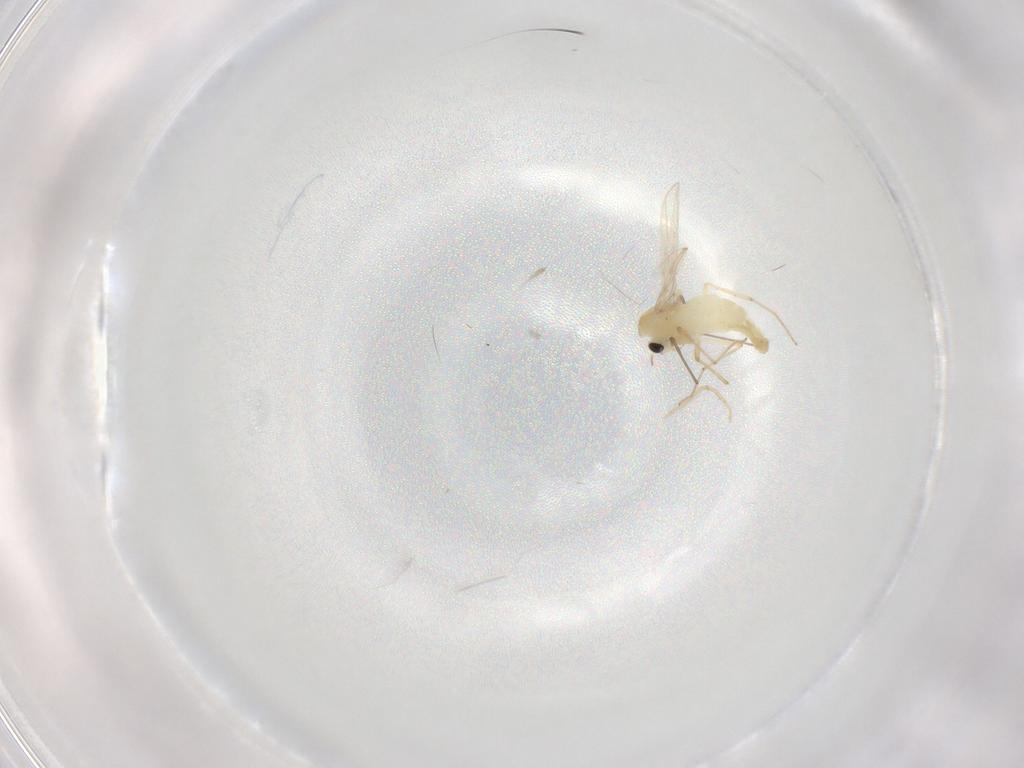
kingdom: Animalia
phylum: Arthropoda
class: Insecta
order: Diptera
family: Chironomidae
